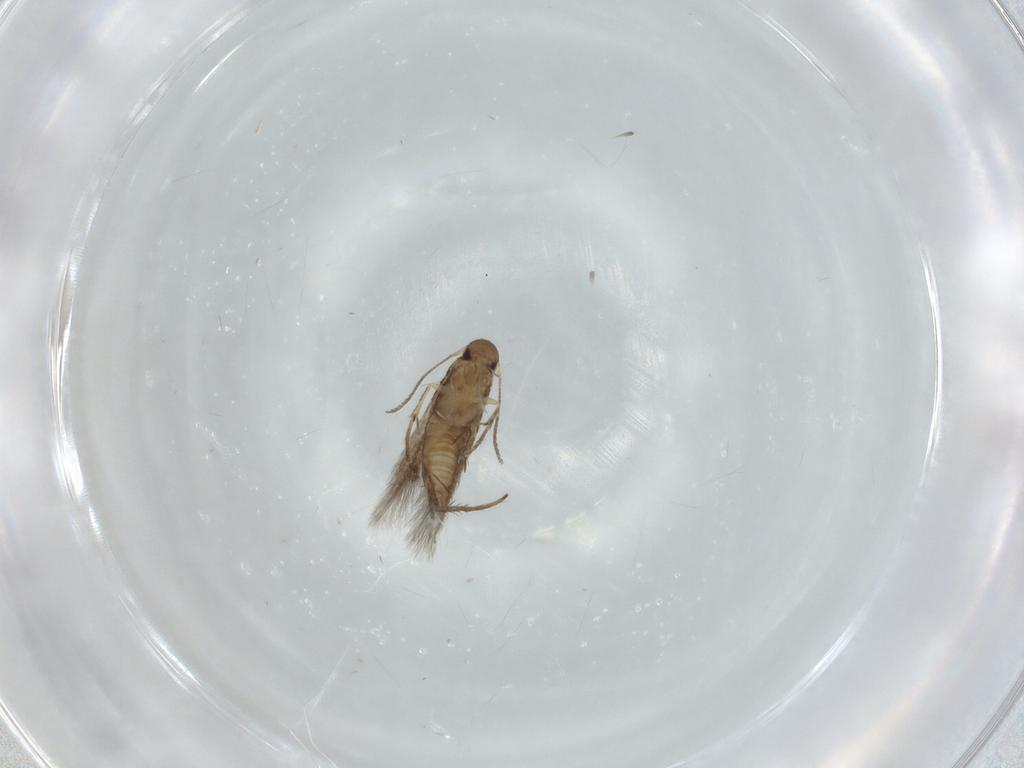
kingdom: Animalia
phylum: Arthropoda
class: Insecta
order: Lepidoptera
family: Pyralidae
